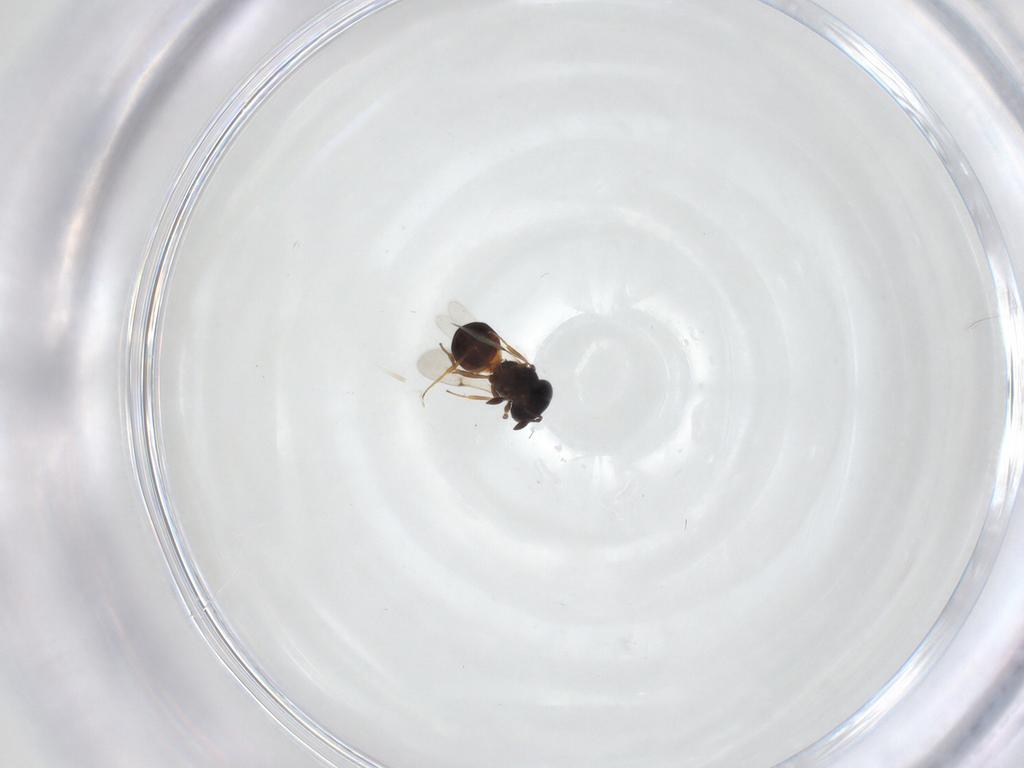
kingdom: Animalia
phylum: Arthropoda
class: Arachnida
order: Araneae
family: Pholcidae
